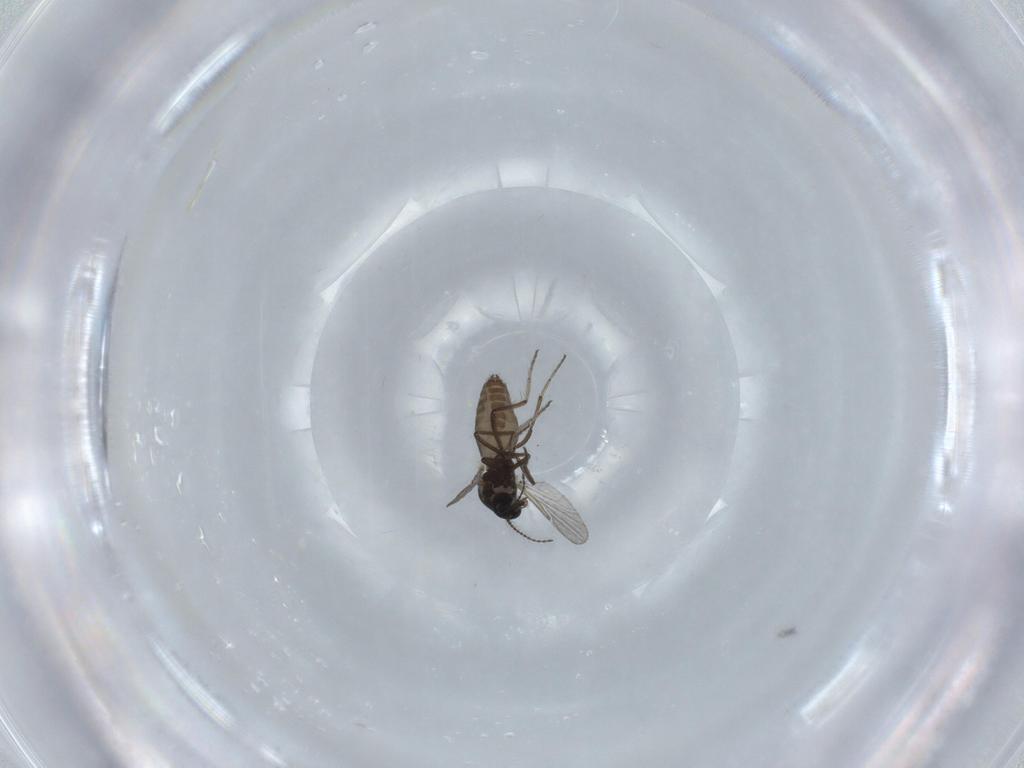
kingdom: Animalia
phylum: Arthropoda
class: Insecta
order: Diptera
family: Ceratopogonidae
